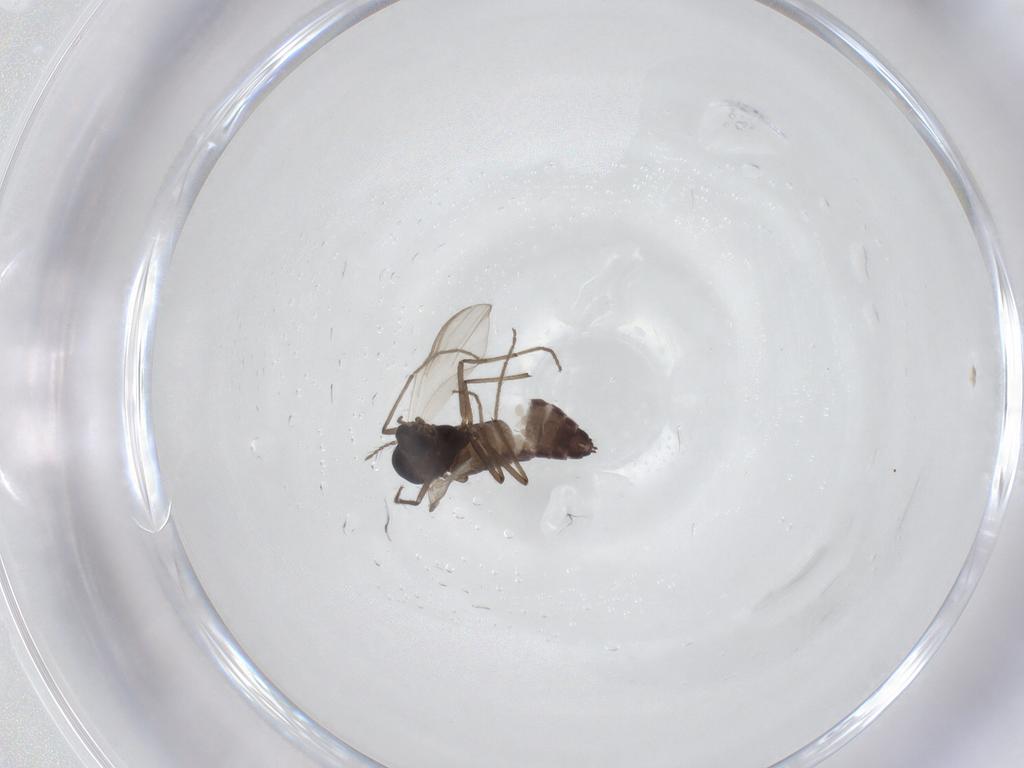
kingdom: Animalia
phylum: Arthropoda
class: Insecta
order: Diptera
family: Chironomidae
